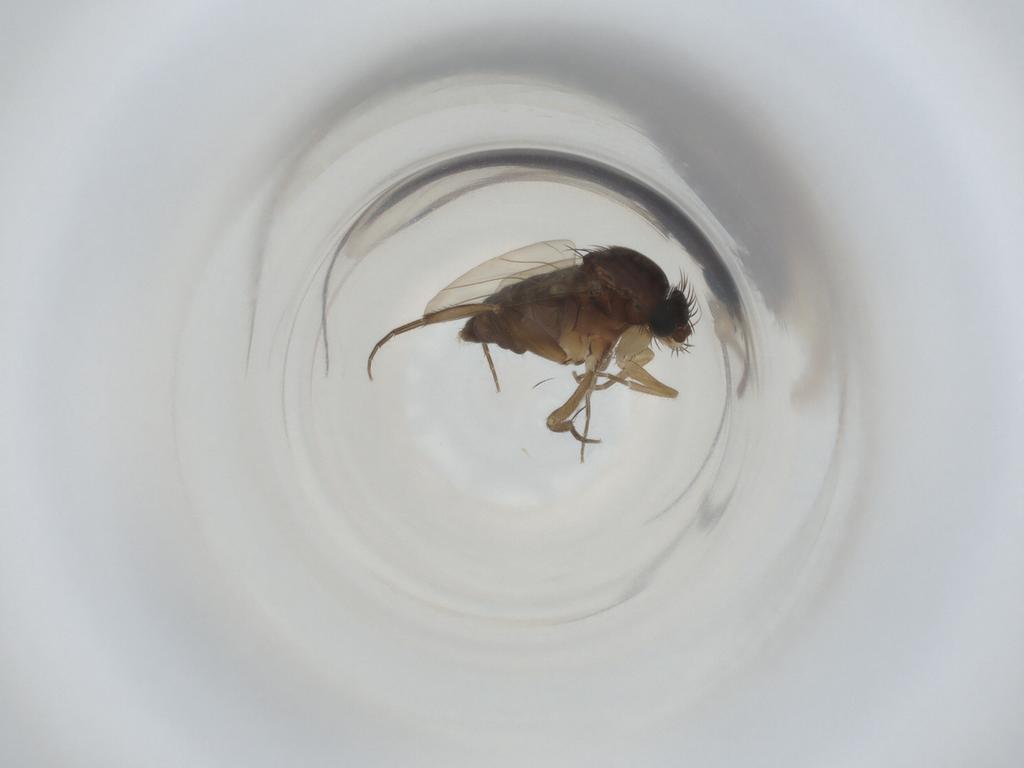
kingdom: Animalia
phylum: Arthropoda
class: Insecta
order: Diptera
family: Phoridae
